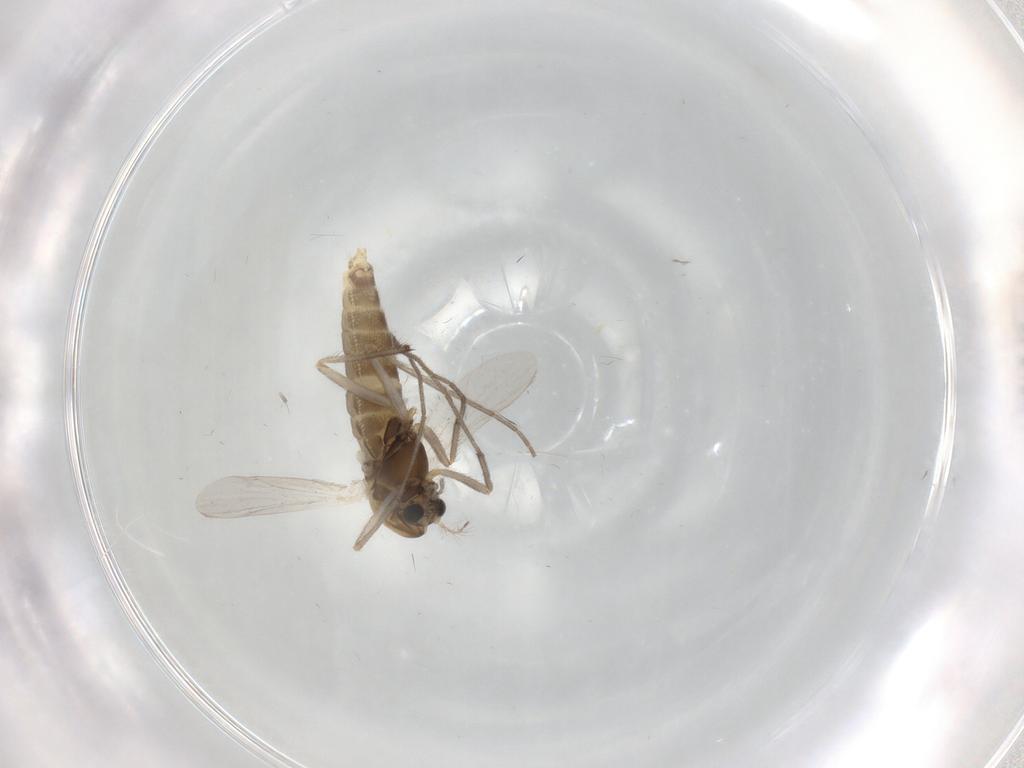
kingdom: Animalia
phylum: Arthropoda
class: Insecta
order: Diptera
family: Chironomidae
